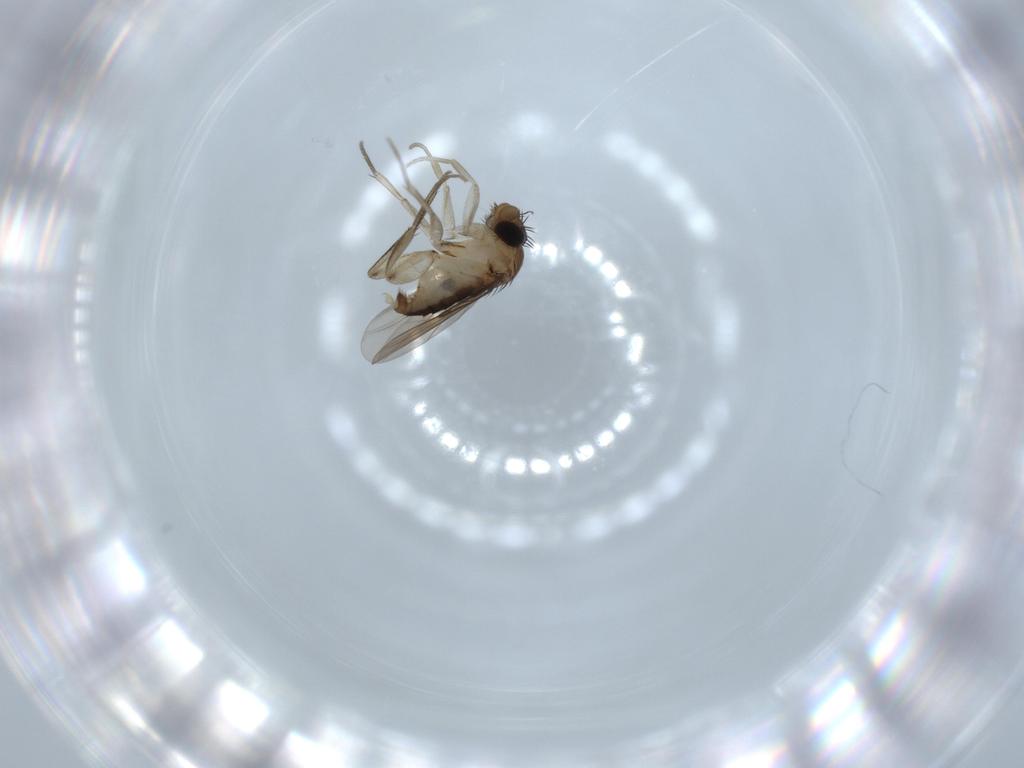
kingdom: Animalia
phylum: Arthropoda
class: Insecta
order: Diptera
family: Phoridae
